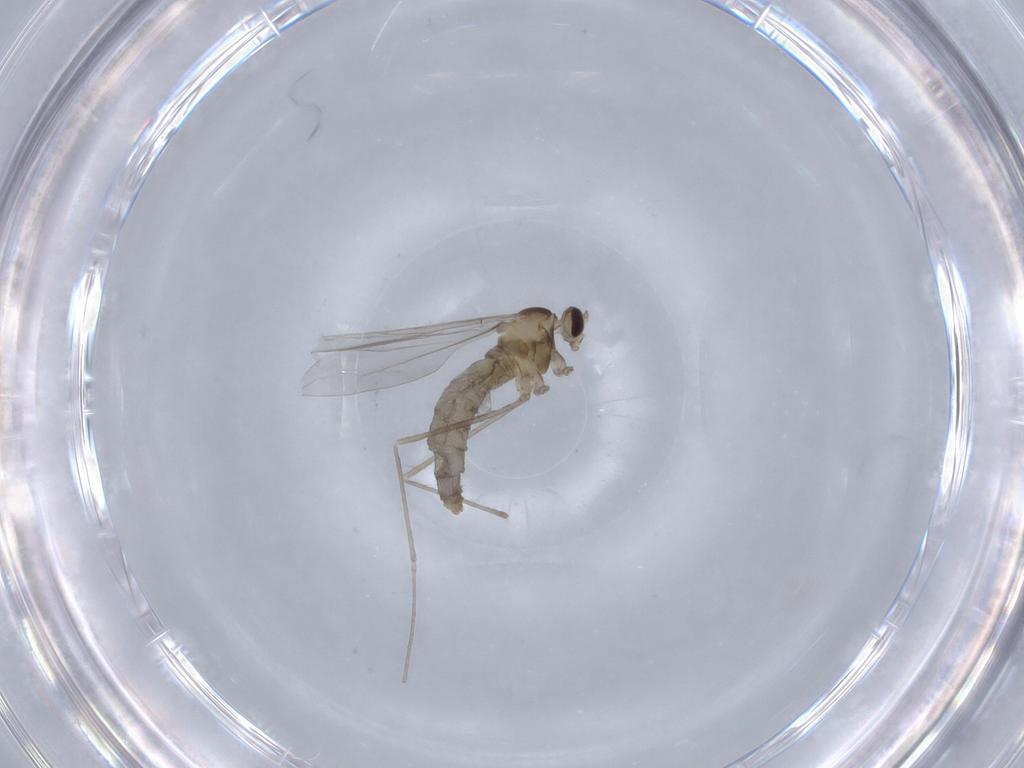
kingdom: Animalia
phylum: Arthropoda
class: Insecta
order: Diptera
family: Cecidomyiidae
